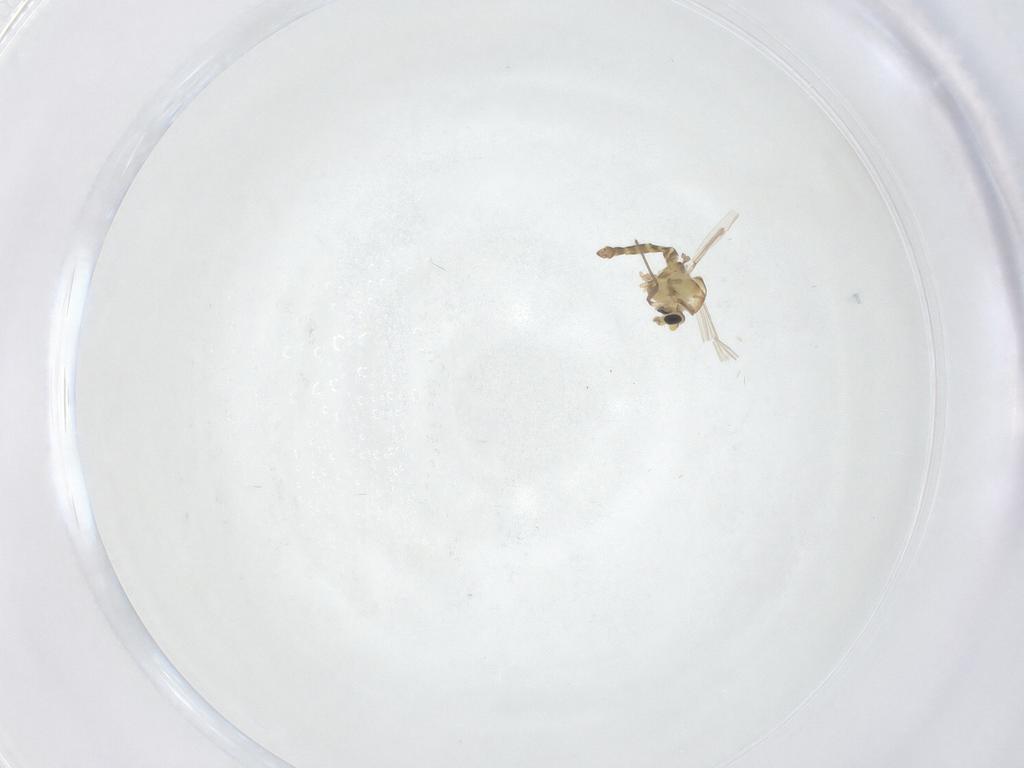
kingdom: Animalia
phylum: Arthropoda
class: Insecta
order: Diptera
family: Chironomidae
